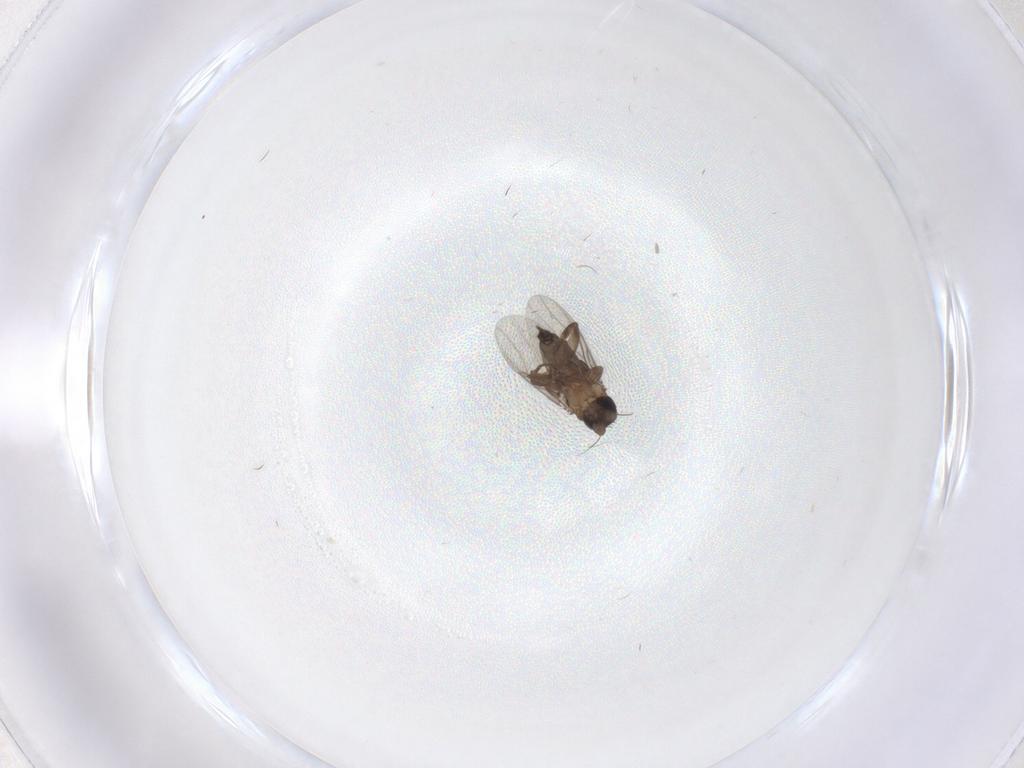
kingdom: Animalia
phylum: Arthropoda
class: Insecta
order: Diptera
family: Phoridae
